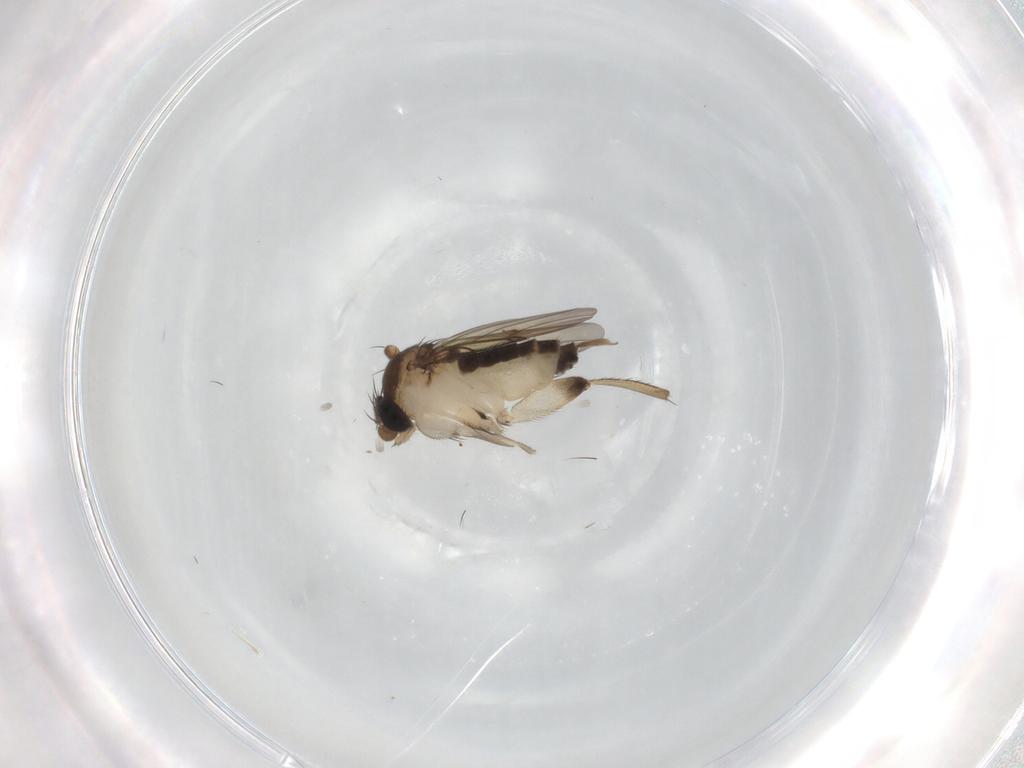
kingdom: Animalia
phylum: Arthropoda
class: Insecta
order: Diptera
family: Phoridae
